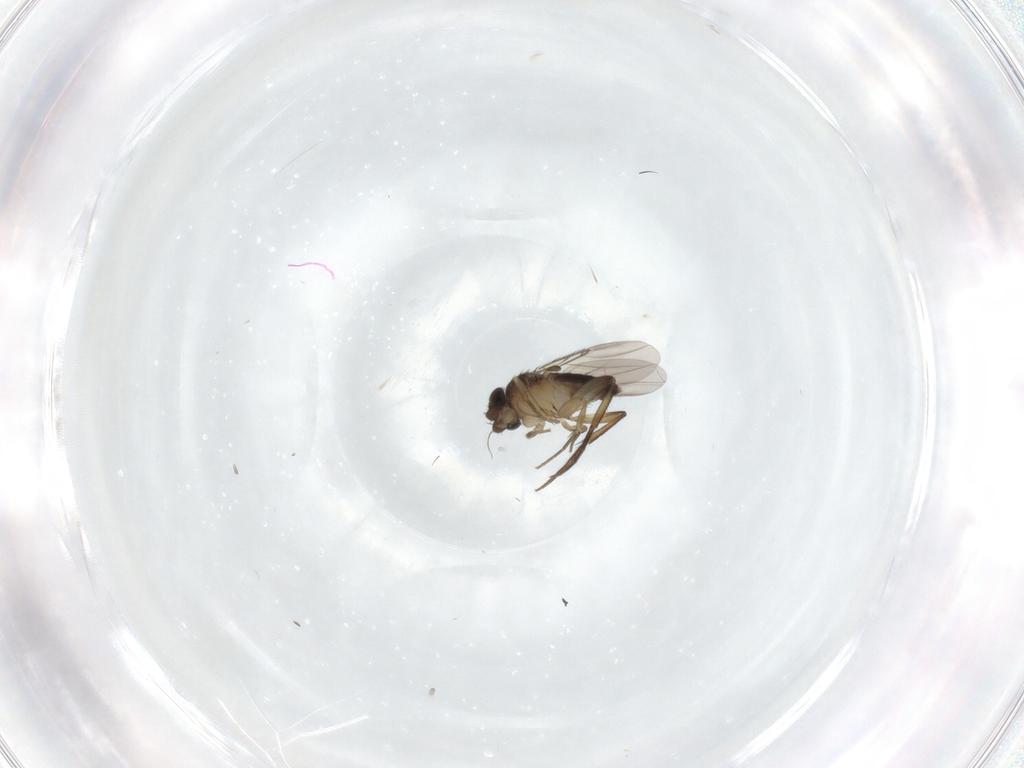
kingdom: Animalia
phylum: Arthropoda
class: Insecta
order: Diptera
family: Phoridae
